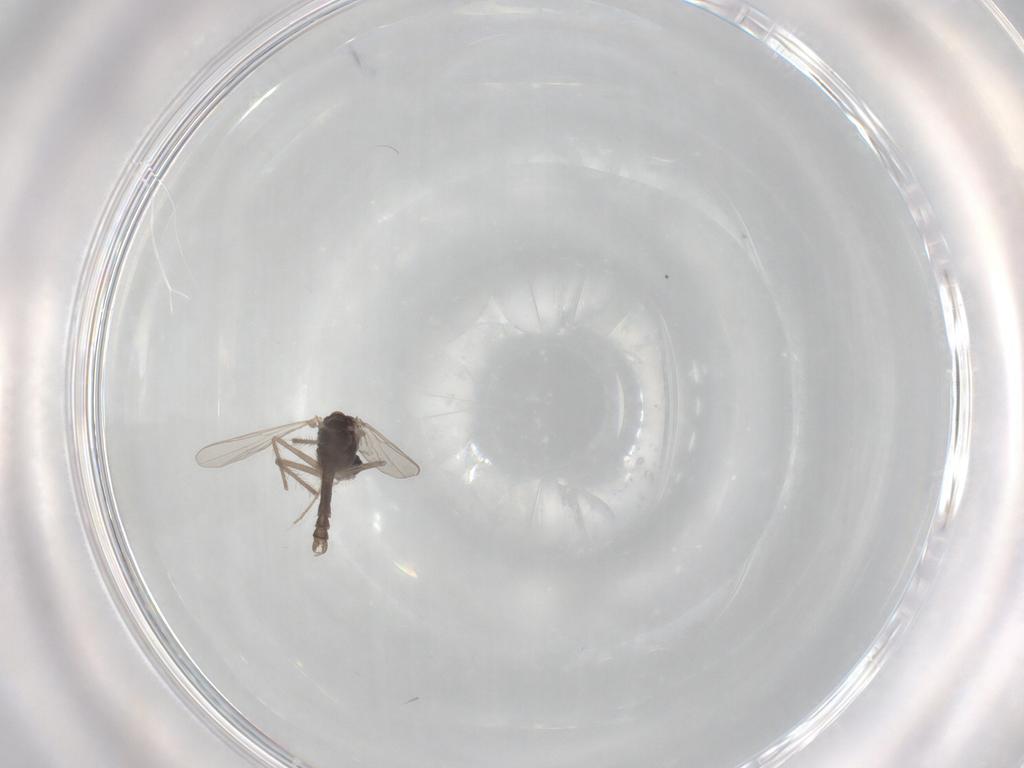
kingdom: Animalia
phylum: Arthropoda
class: Insecta
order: Diptera
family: Chironomidae
